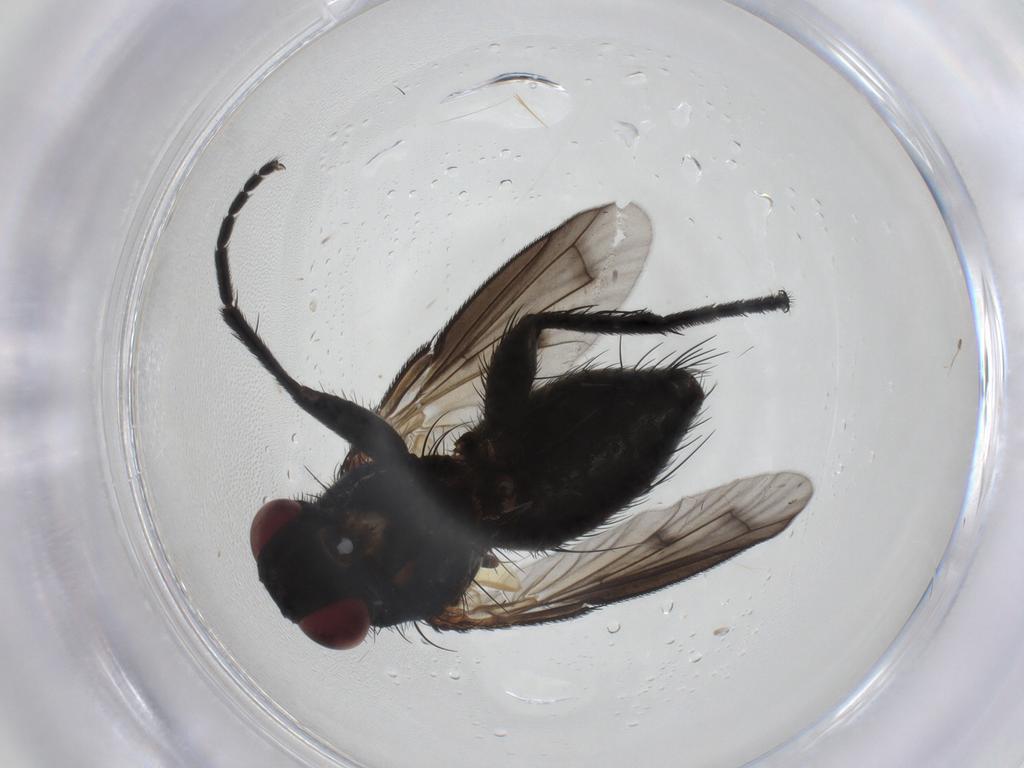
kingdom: Animalia
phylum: Arthropoda
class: Insecta
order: Diptera
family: Tachinidae
